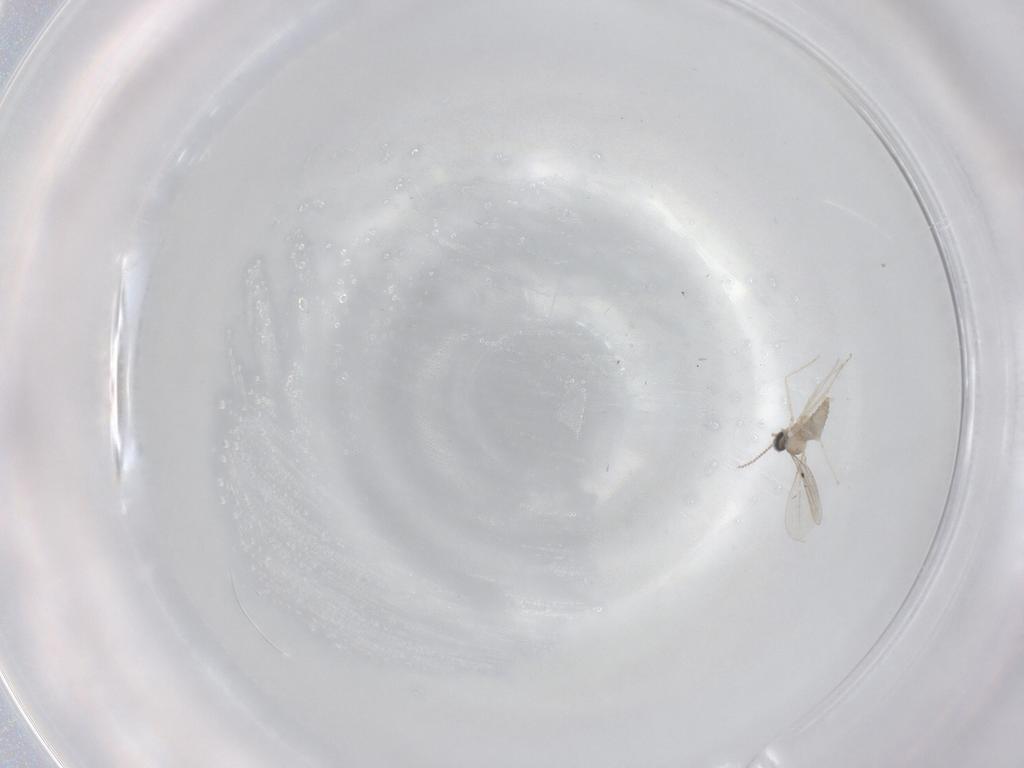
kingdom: Animalia
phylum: Arthropoda
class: Insecta
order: Diptera
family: Cecidomyiidae
